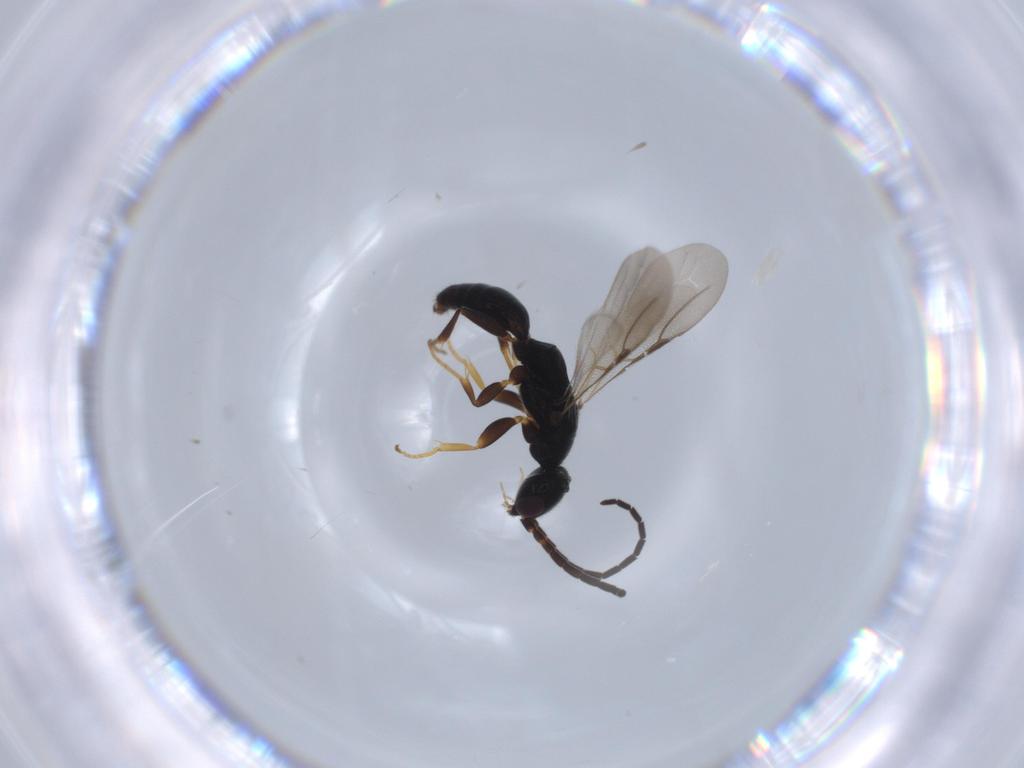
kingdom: Animalia
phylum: Arthropoda
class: Insecta
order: Hymenoptera
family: Bethylidae
